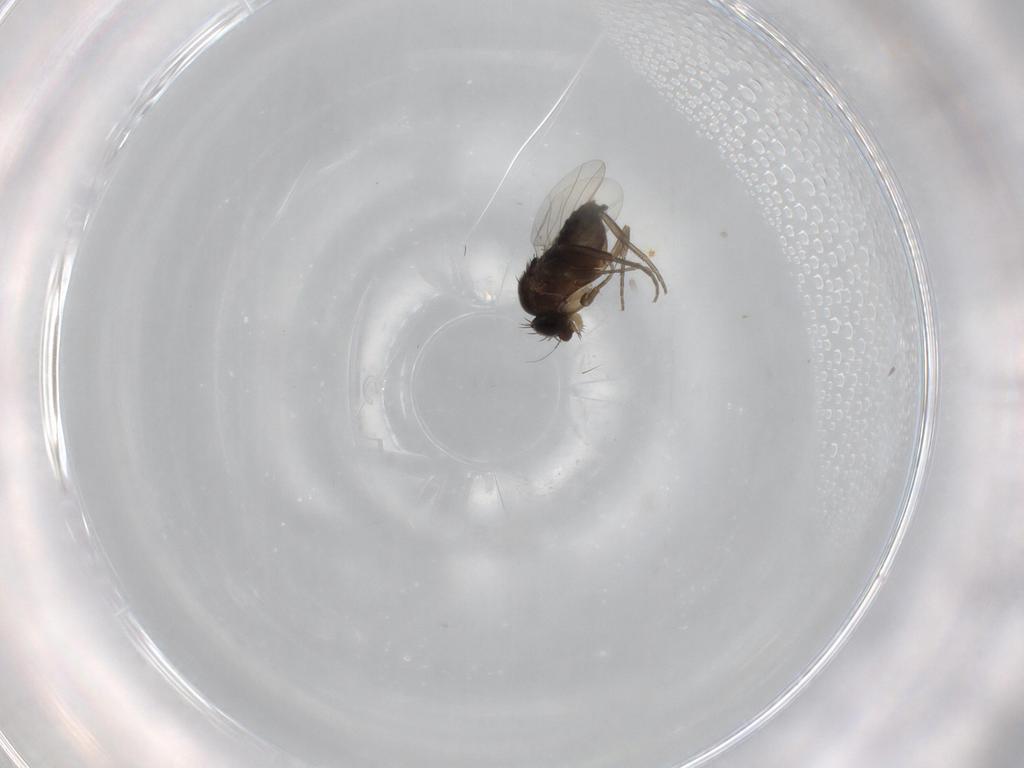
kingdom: Animalia
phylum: Arthropoda
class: Insecta
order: Diptera
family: Phoridae
